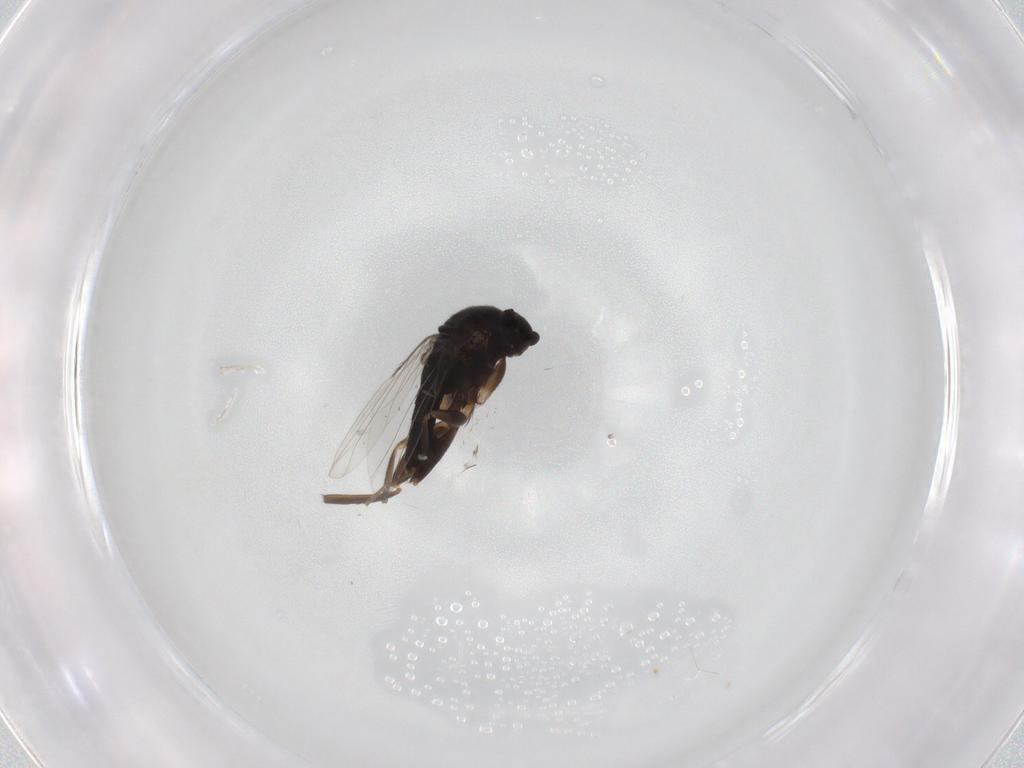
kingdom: Animalia
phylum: Arthropoda
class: Insecta
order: Diptera
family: Phoridae
